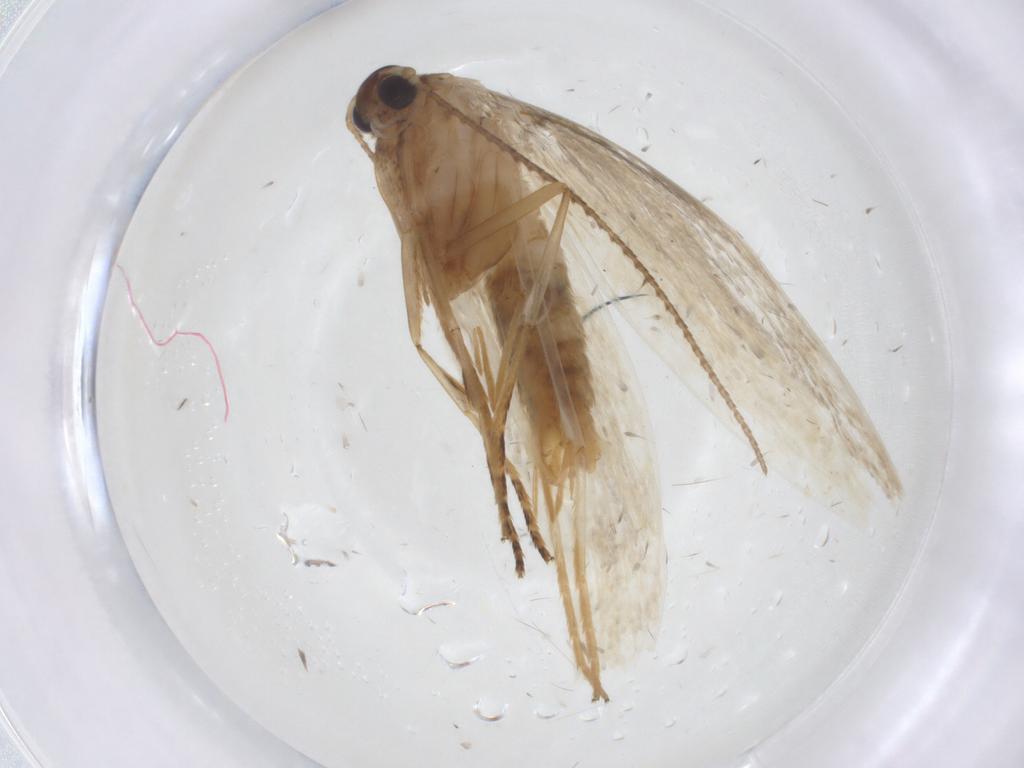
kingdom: Animalia
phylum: Arthropoda
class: Insecta
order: Lepidoptera
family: Erebidae
